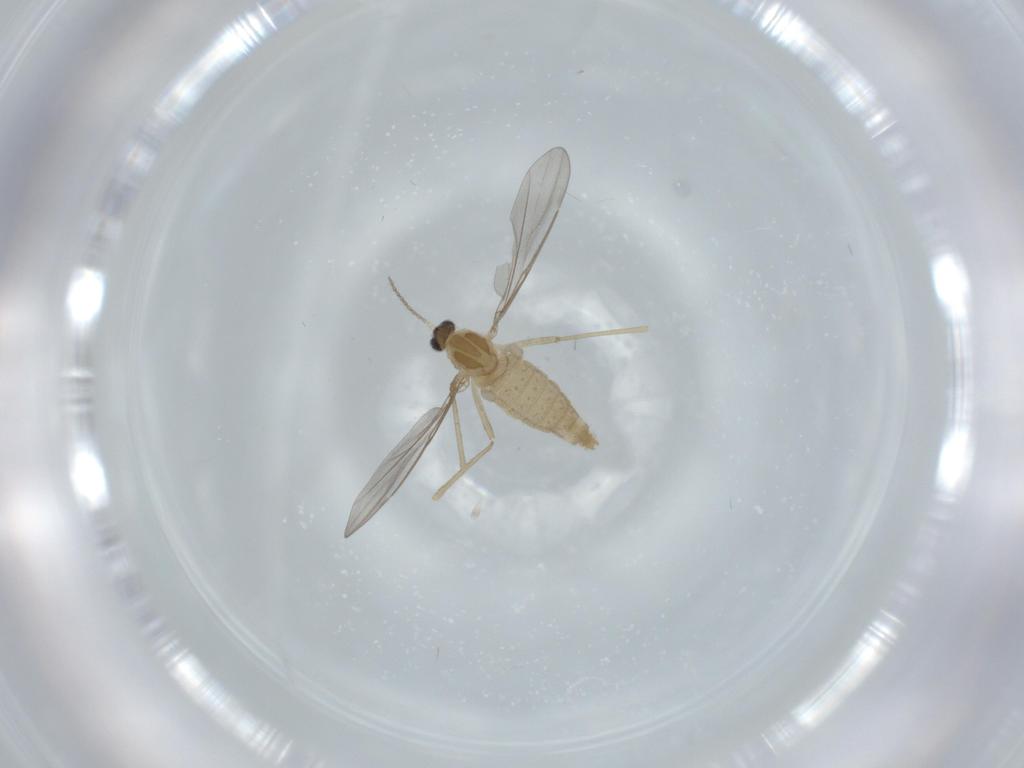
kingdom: Animalia
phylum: Arthropoda
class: Insecta
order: Diptera
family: Cecidomyiidae
